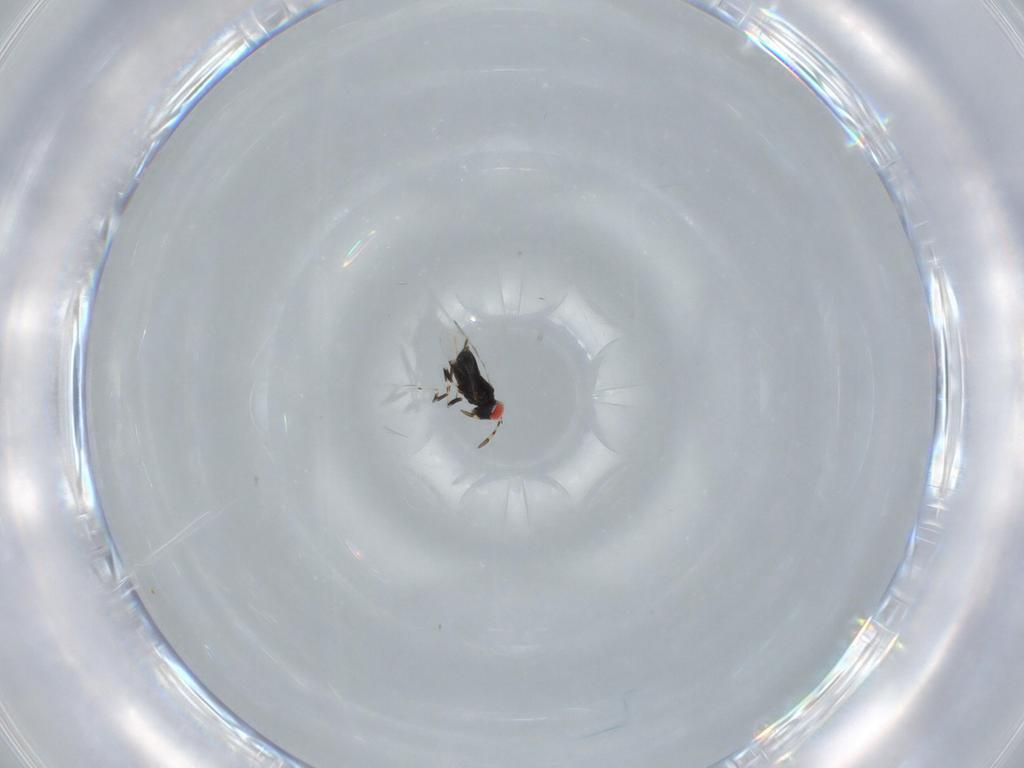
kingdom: Animalia
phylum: Arthropoda
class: Insecta
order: Hymenoptera
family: Azotidae
